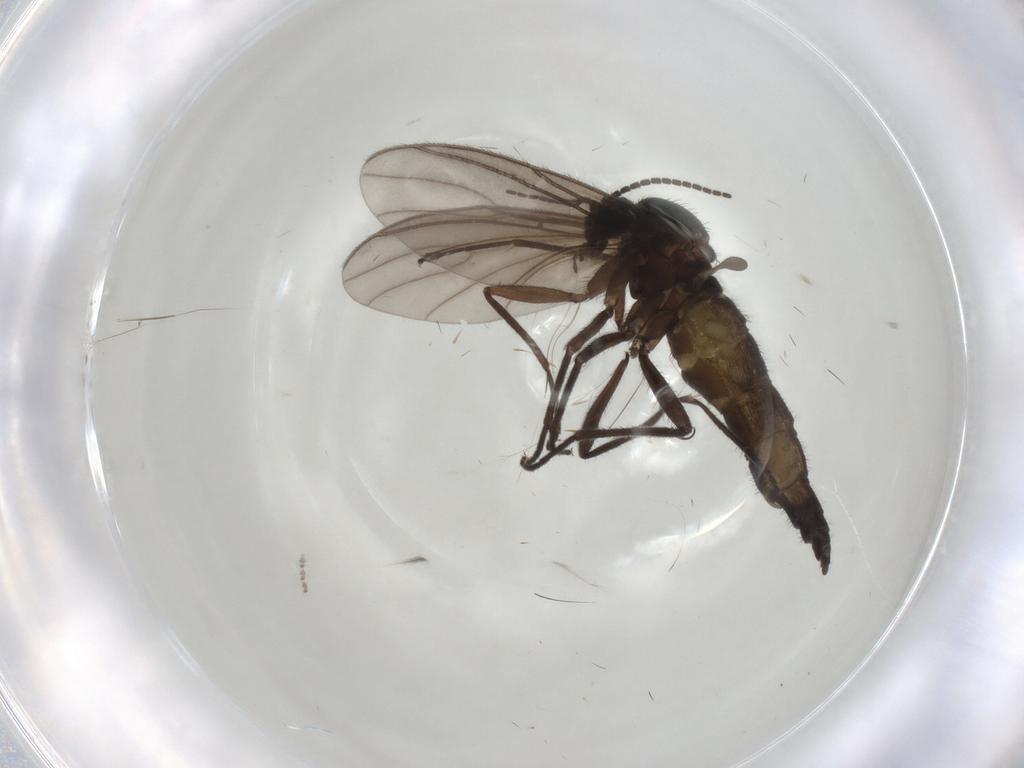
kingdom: Animalia
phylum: Arthropoda
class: Insecta
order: Diptera
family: Sciaridae
